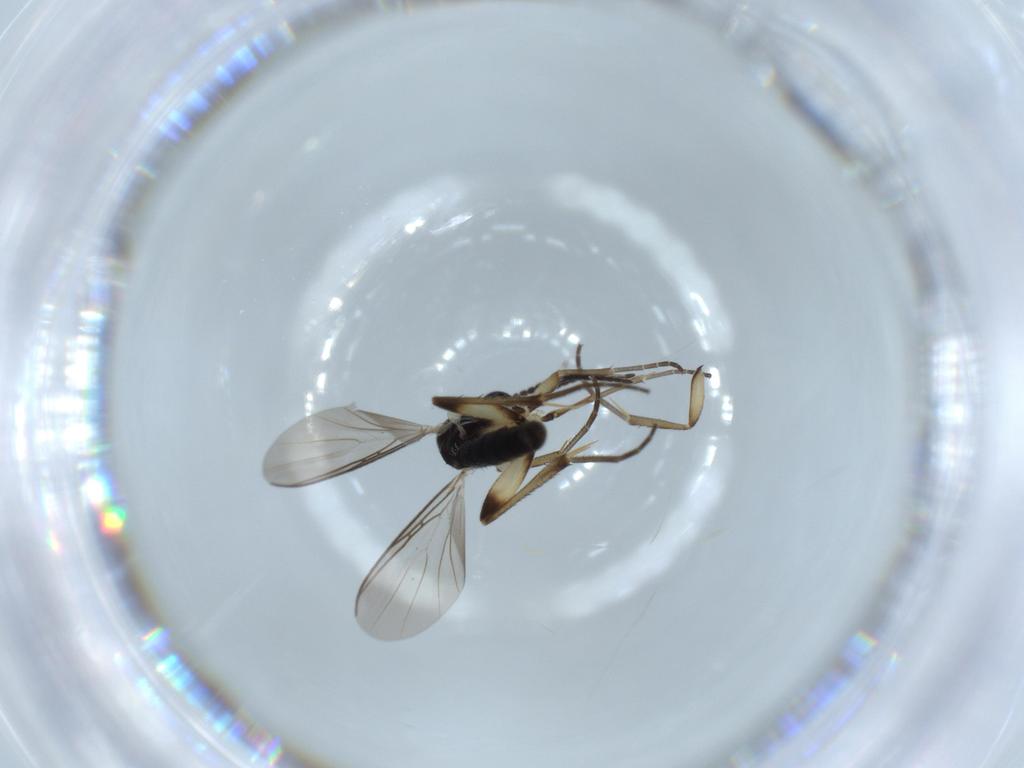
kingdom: Animalia
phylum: Arthropoda
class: Insecta
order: Diptera
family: Mycetophilidae
